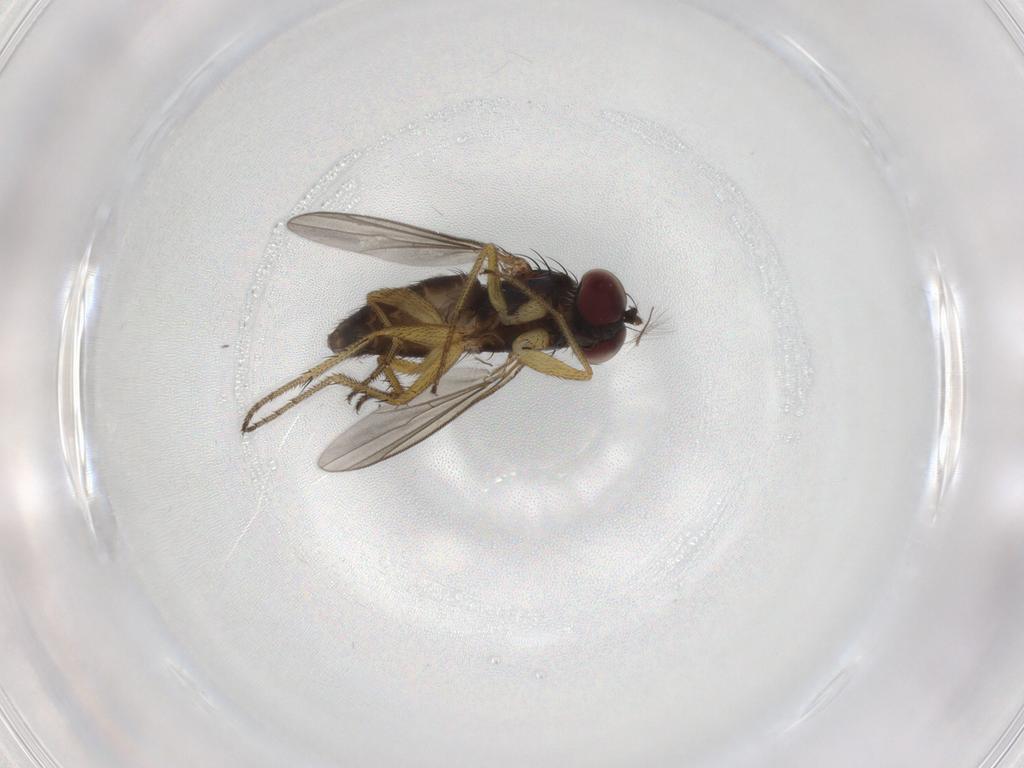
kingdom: Animalia
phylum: Arthropoda
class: Insecta
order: Diptera
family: Dolichopodidae
